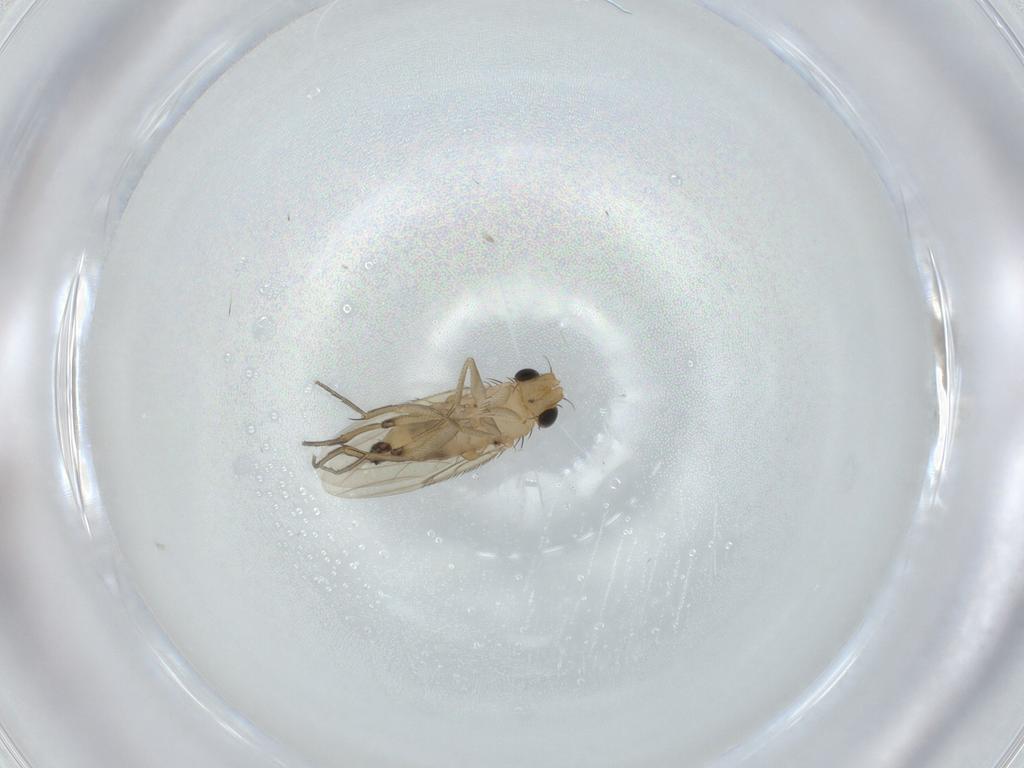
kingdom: Animalia
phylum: Arthropoda
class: Insecta
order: Diptera
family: Phoridae
